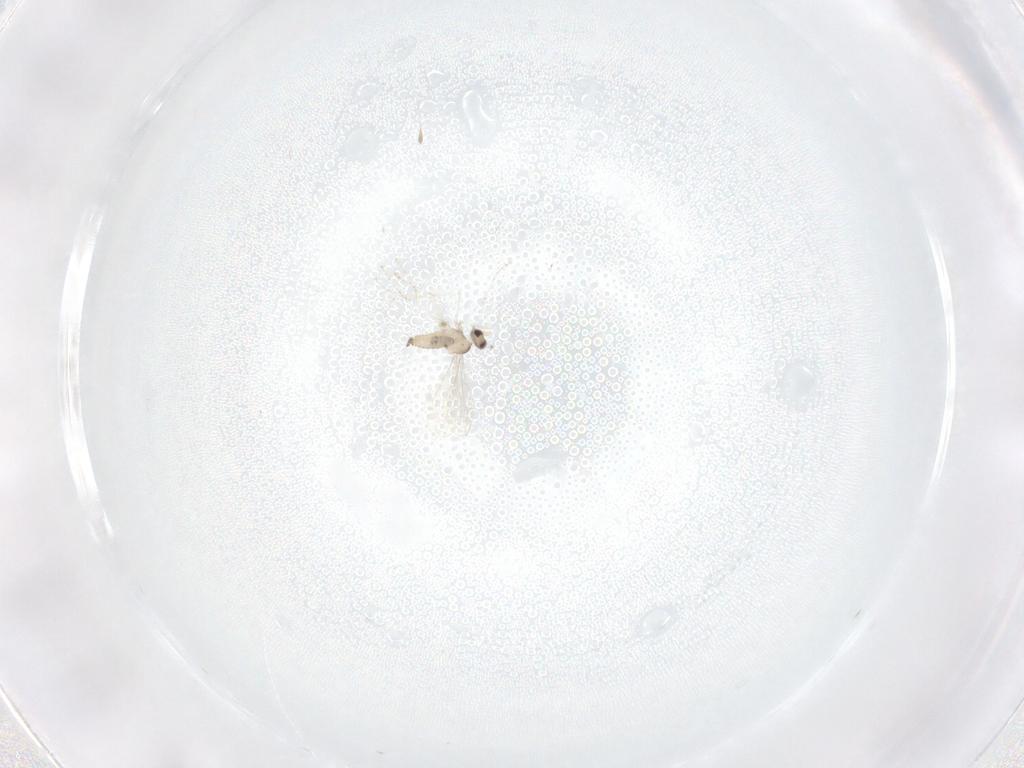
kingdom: Animalia
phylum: Arthropoda
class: Insecta
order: Diptera
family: Cecidomyiidae
